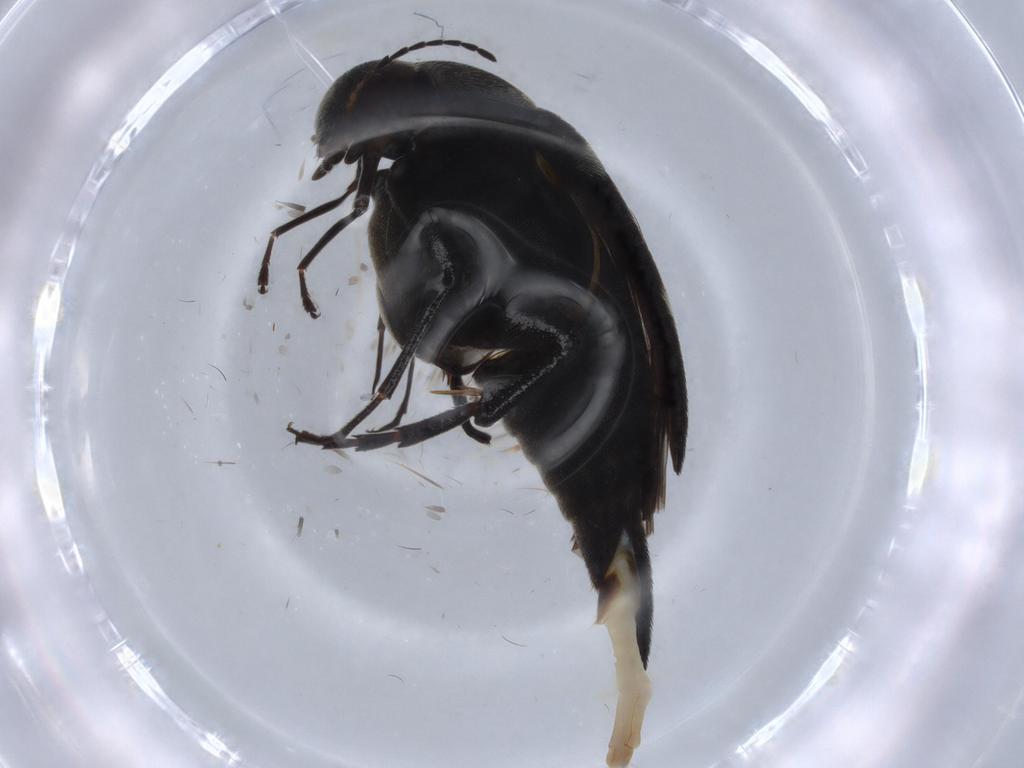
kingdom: Animalia
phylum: Arthropoda
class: Insecta
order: Coleoptera
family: Mordellidae
